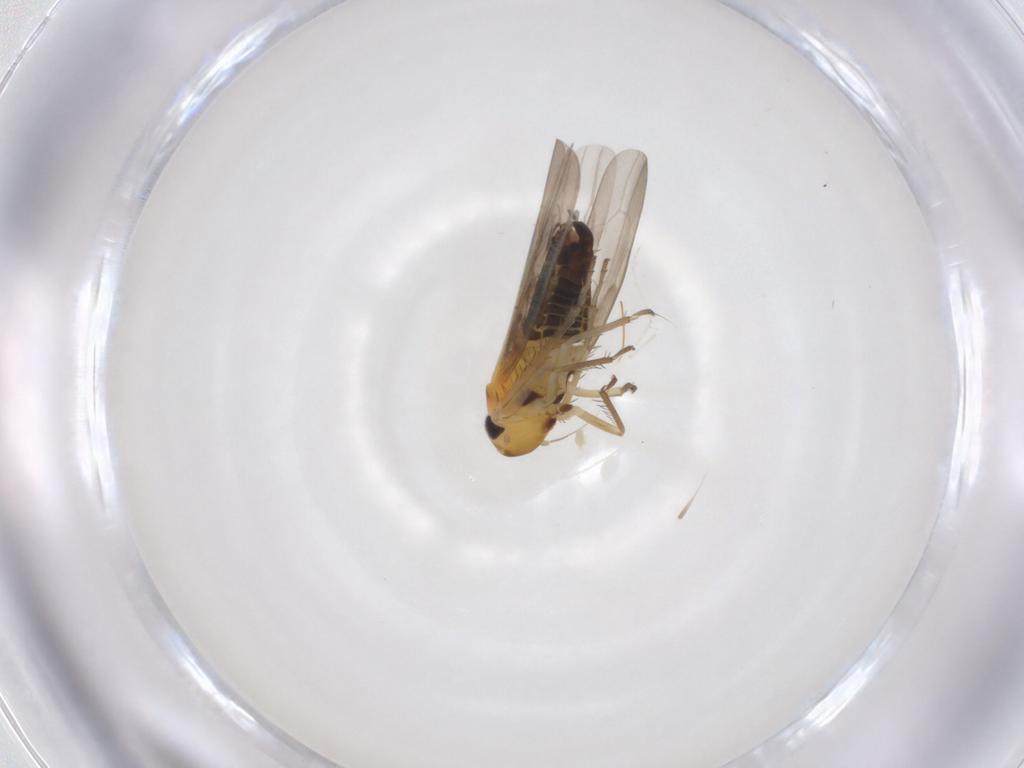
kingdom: Animalia
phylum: Arthropoda
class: Insecta
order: Hemiptera
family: Cicadellidae
